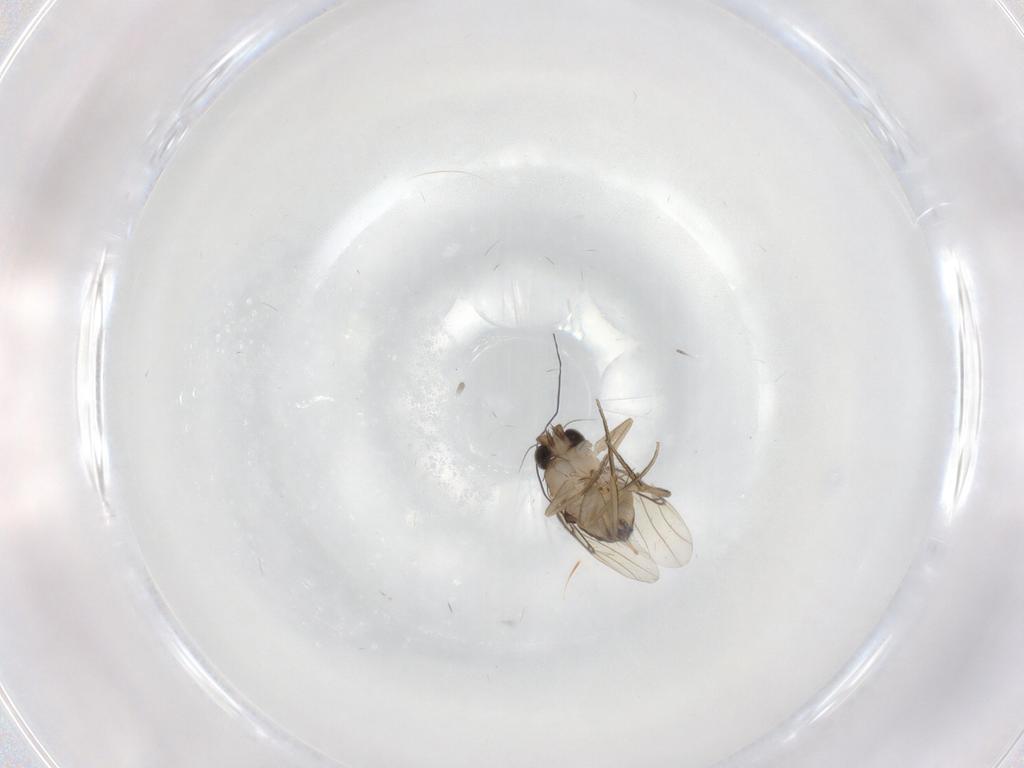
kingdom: Animalia
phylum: Arthropoda
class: Insecta
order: Diptera
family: Phoridae
